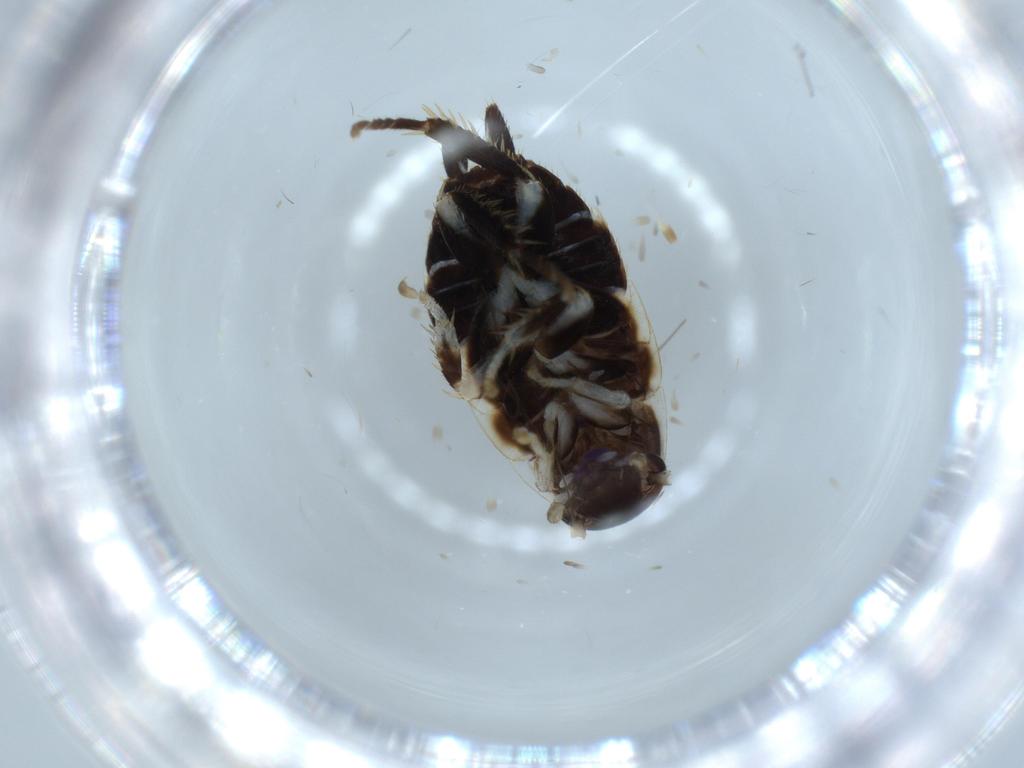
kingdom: Animalia
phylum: Arthropoda
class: Insecta
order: Blattodea
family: Ectobiidae
